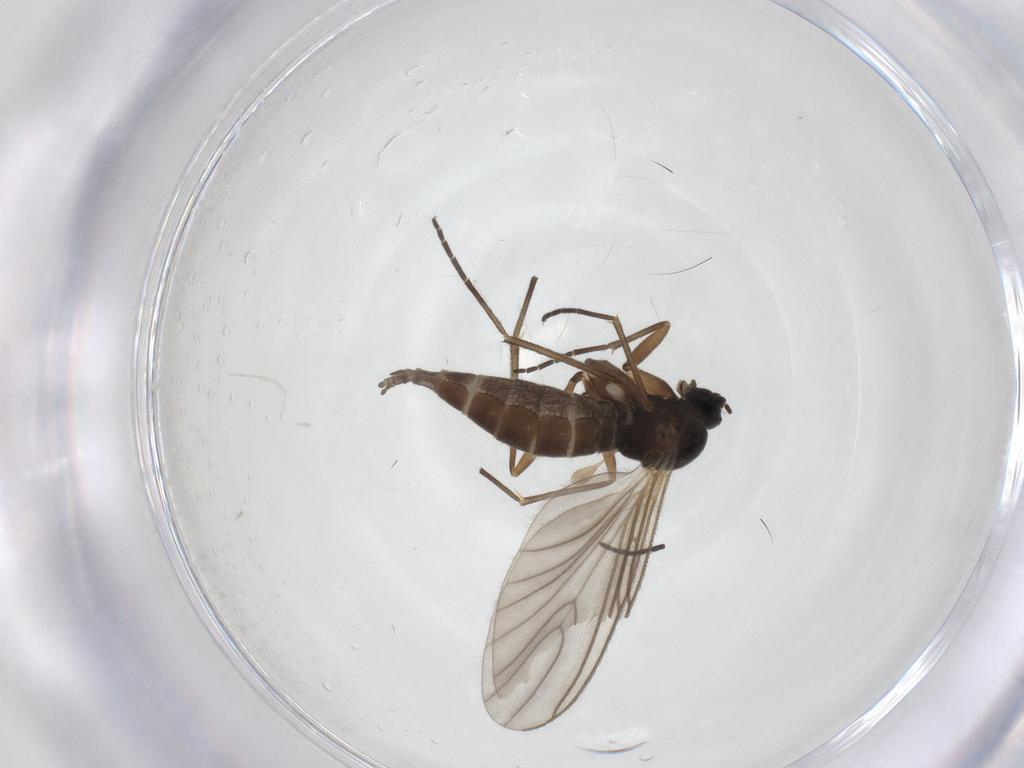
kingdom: Animalia
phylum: Arthropoda
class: Insecta
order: Diptera
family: Sciaridae
